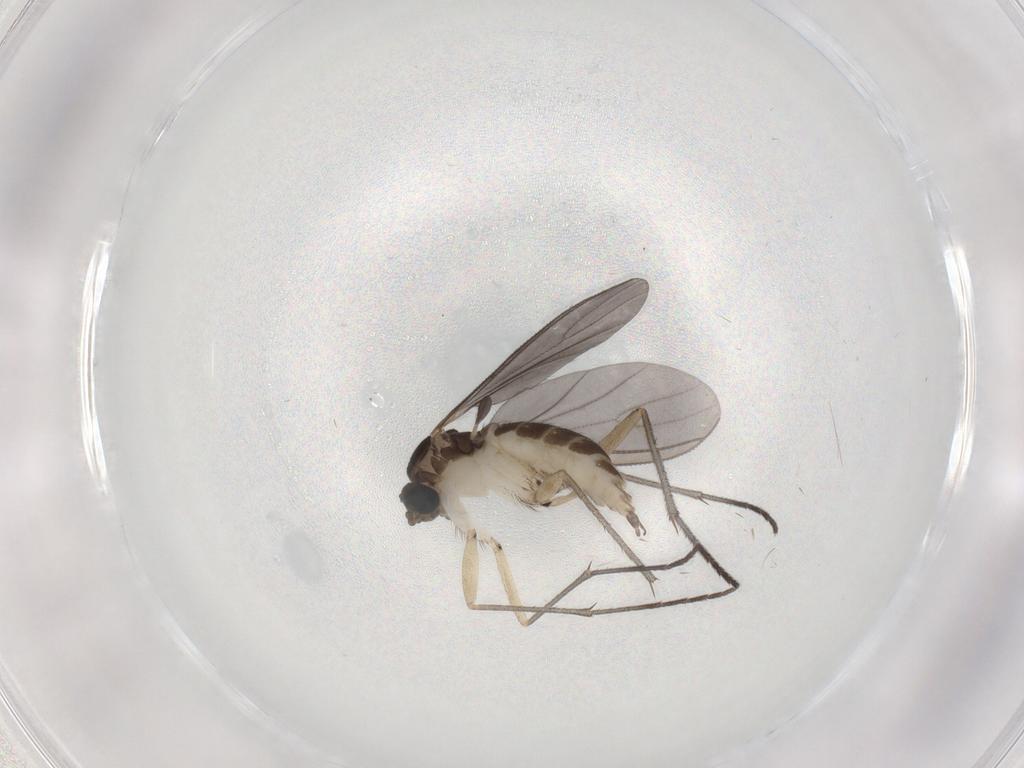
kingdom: Animalia
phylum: Arthropoda
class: Insecta
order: Diptera
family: Sciaridae
